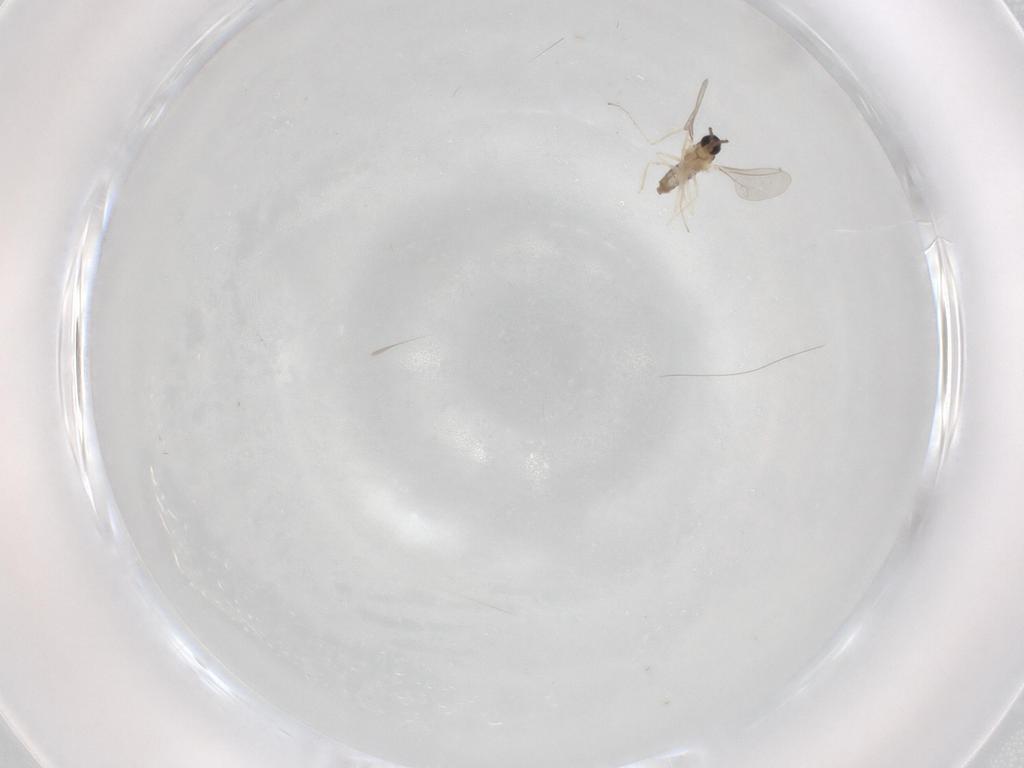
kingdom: Animalia
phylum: Arthropoda
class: Insecta
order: Diptera
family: Cecidomyiidae
